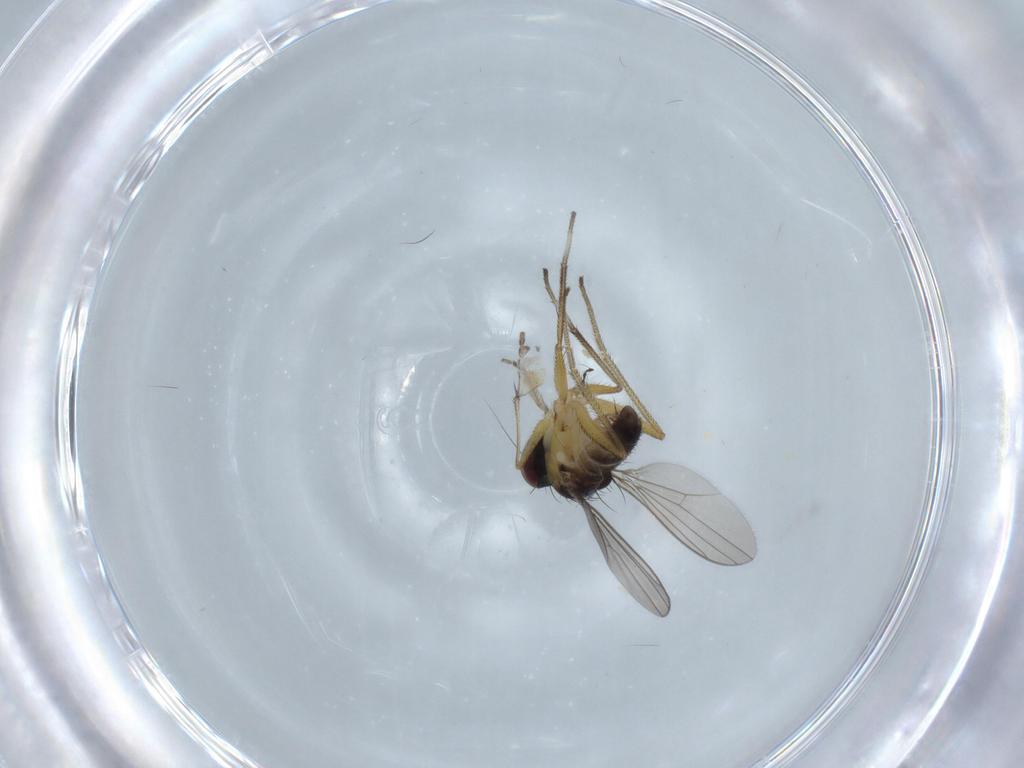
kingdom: Animalia
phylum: Arthropoda
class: Insecta
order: Diptera
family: Dolichopodidae
